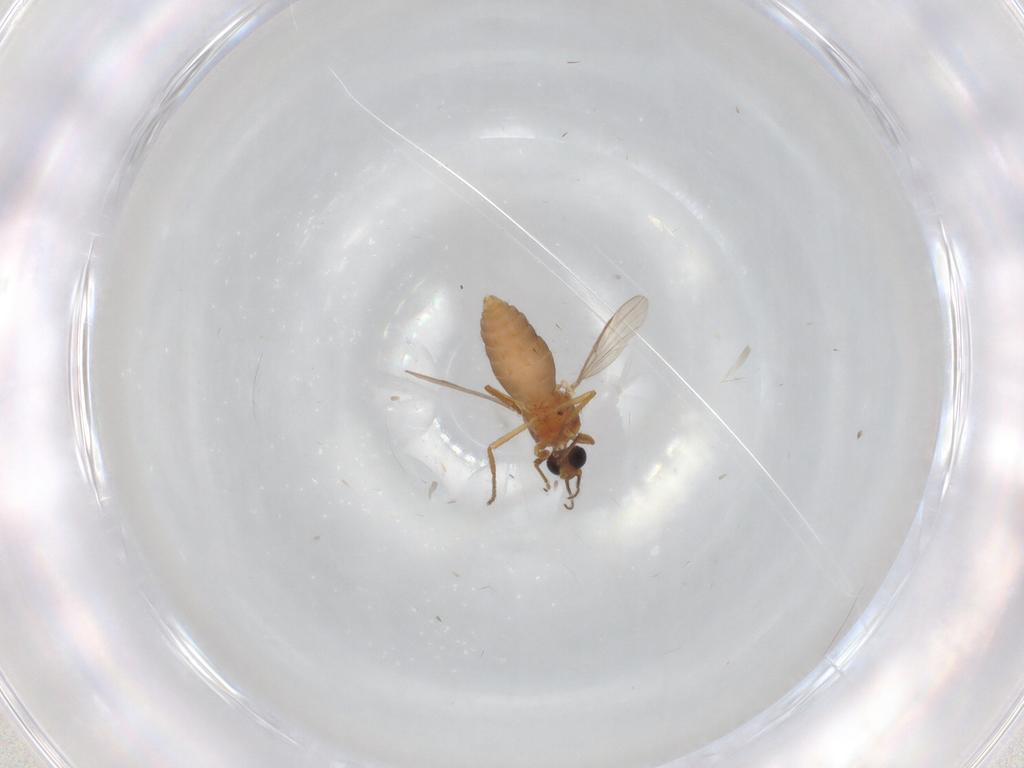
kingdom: Animalia
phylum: Arthropoda
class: Insecta
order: Diptera
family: Ceratopogonidae
